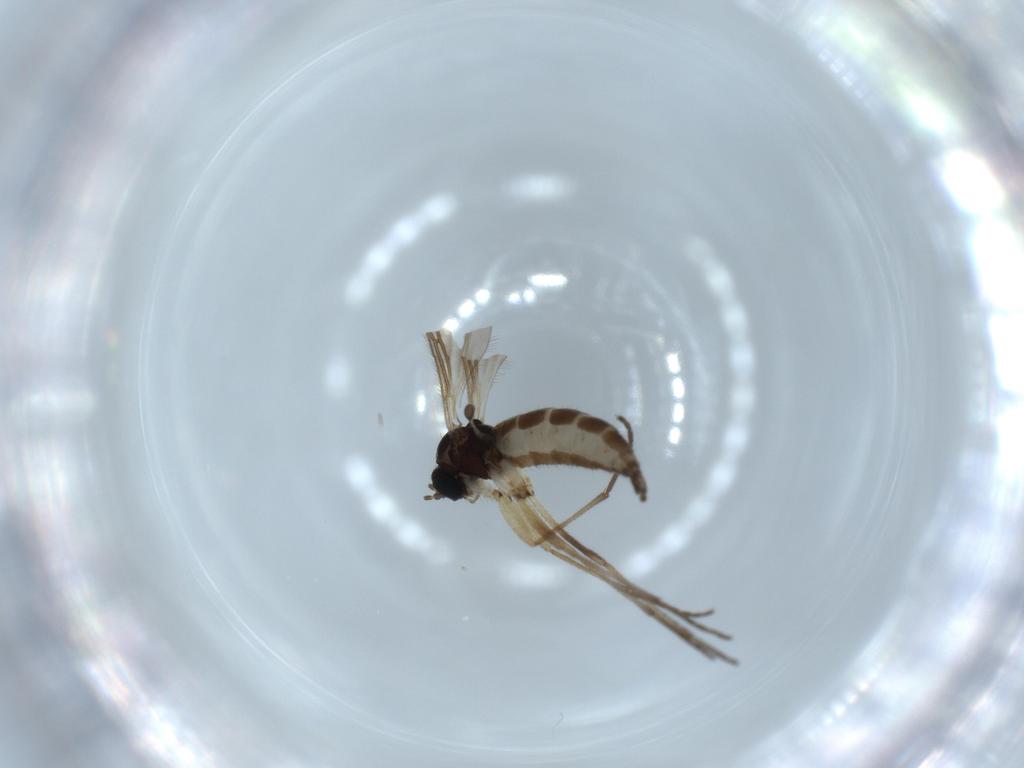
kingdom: Animalia
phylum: Arthropoda
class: Insecta
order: Diptera
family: Sciaridae
